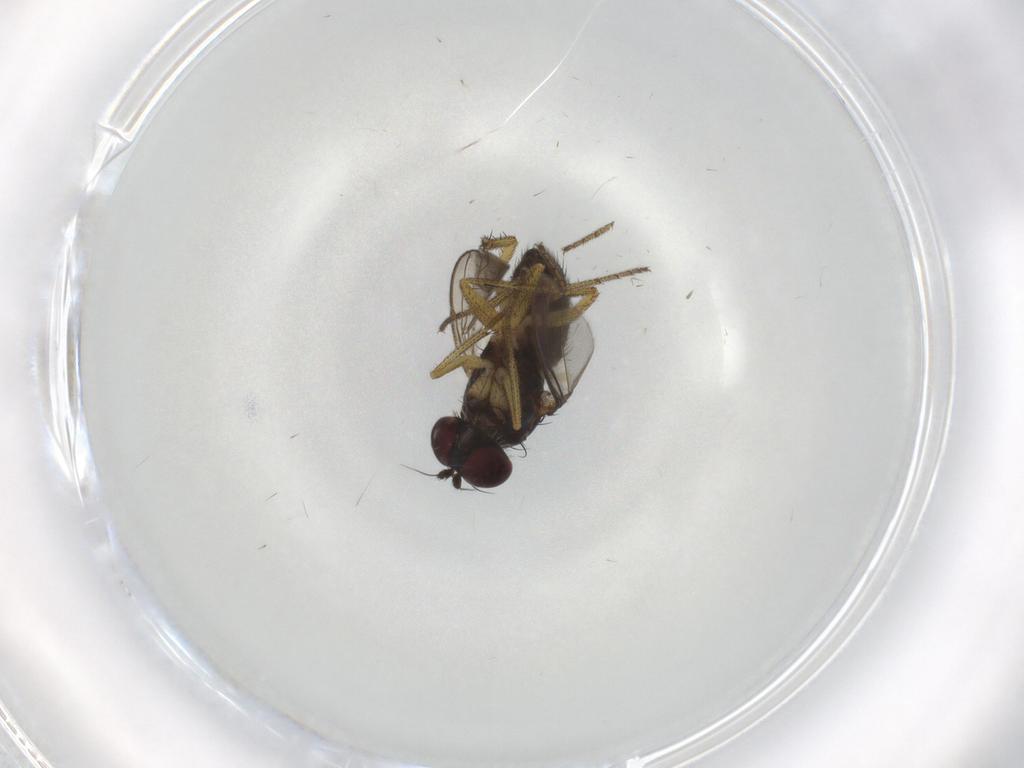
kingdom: Animalia
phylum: Arthropoda
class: Insecta
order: Diptera
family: Dolichopodidae
